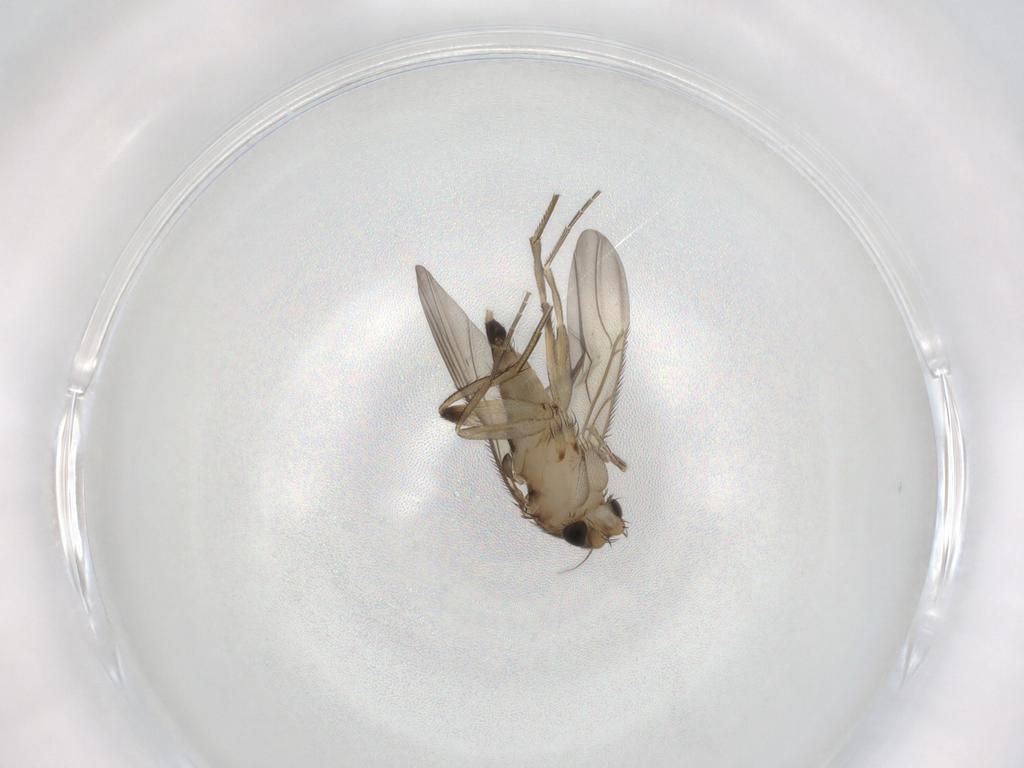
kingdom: Animalia
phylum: Arthropoda
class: Insecta
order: Diptera
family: Phoridae
